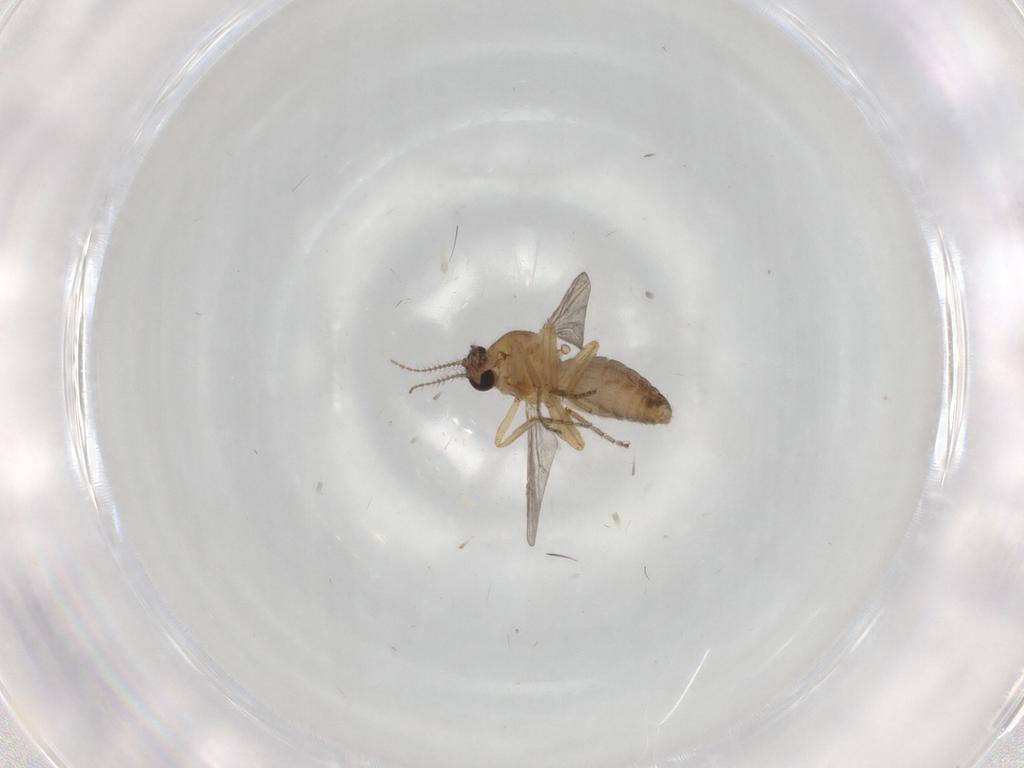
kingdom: Animalia
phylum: Arthropoda
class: Insecta
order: Diptera
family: Ceratopogonidae
